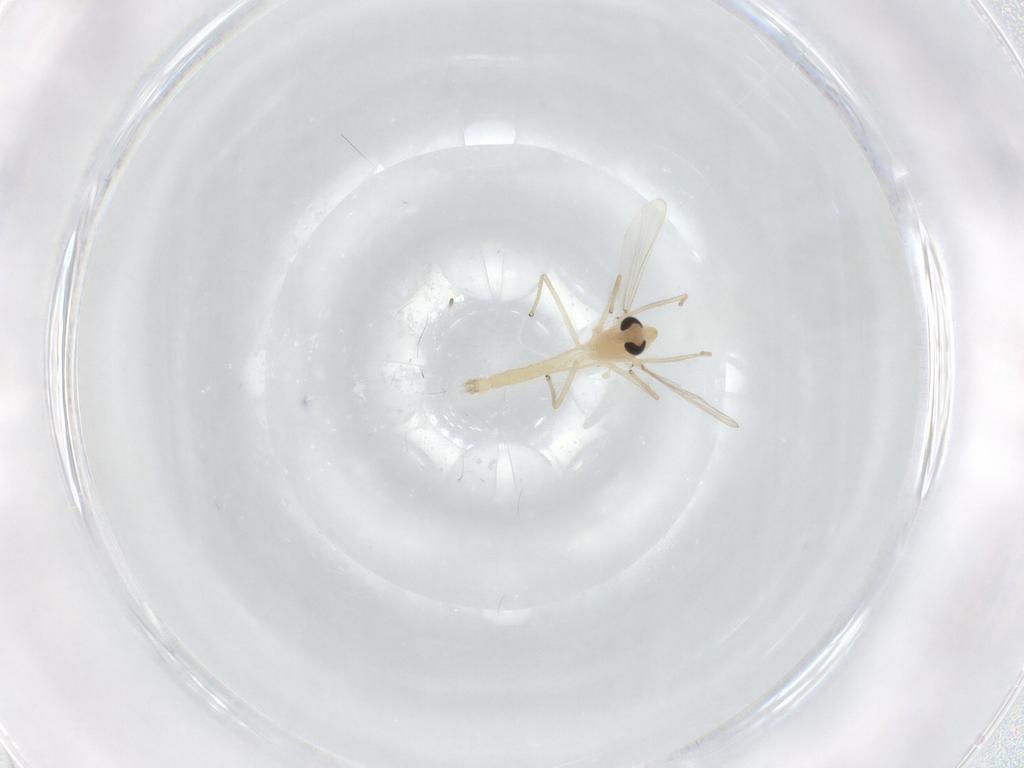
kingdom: Animalia
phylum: Arthropoda
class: Insecta
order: Diptera
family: Chironomidae
